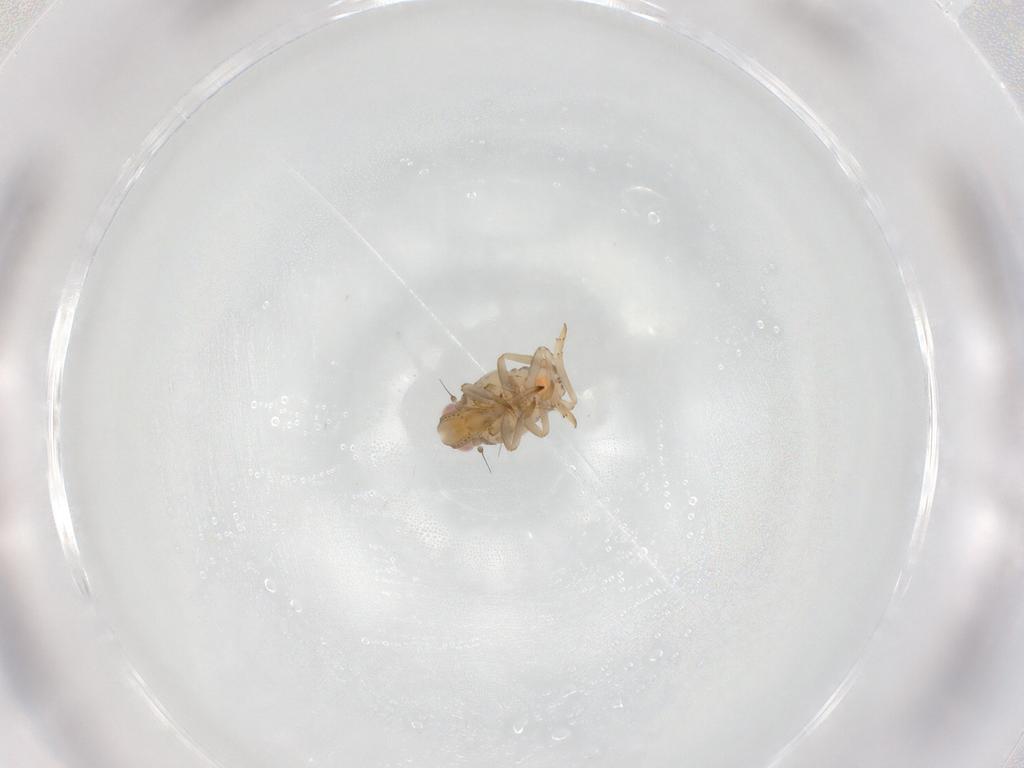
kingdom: Animalia
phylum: Arthropoda
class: Insecta
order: Hemiptera
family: Tropiduchidae
